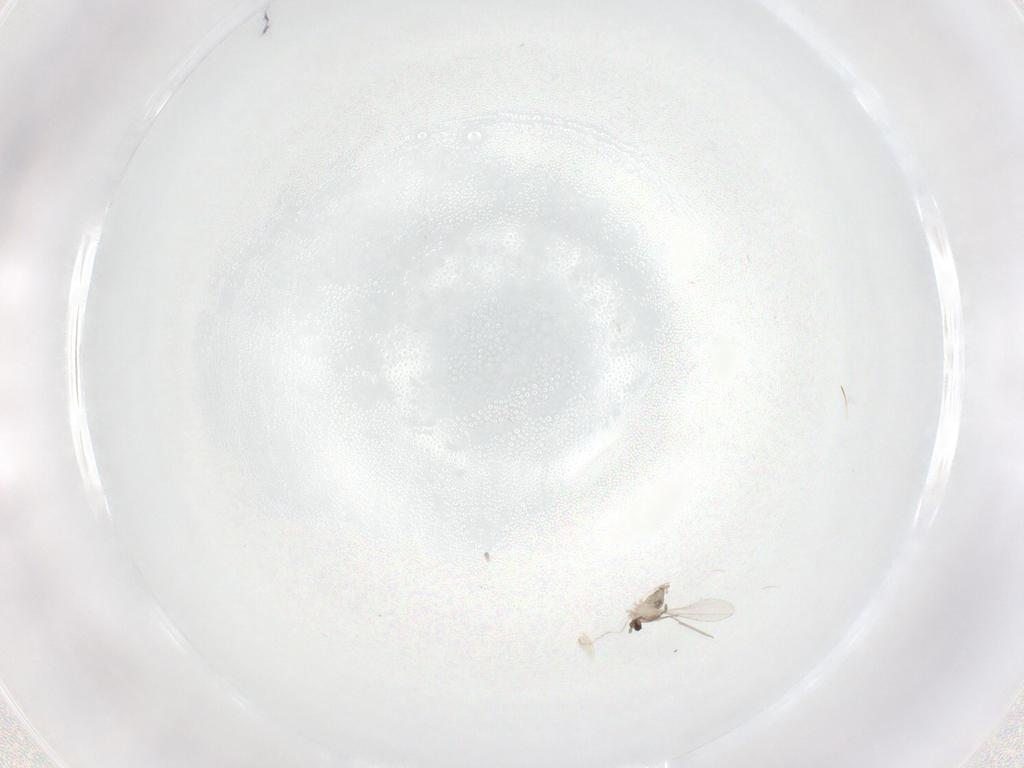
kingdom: Animalia
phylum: Arthropoda
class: Insecta
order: Diptera
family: Cecidomyiidae
